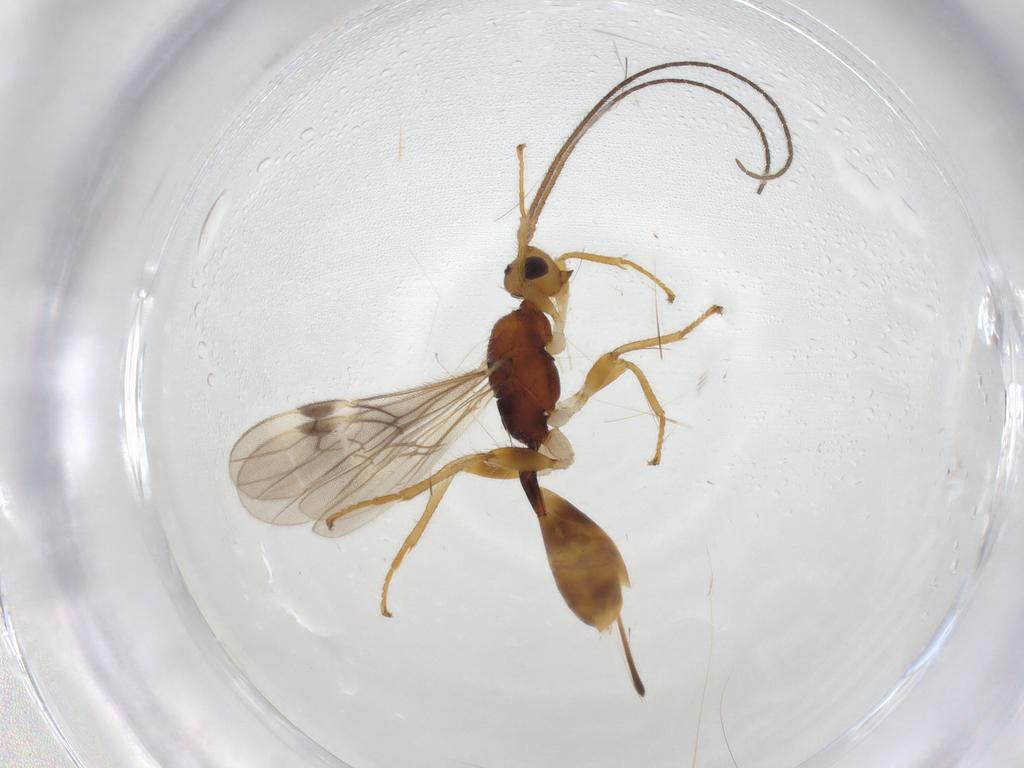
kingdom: Animalia
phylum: Arthropoda
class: Insecta
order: Hymenoptera
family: Braconidae
